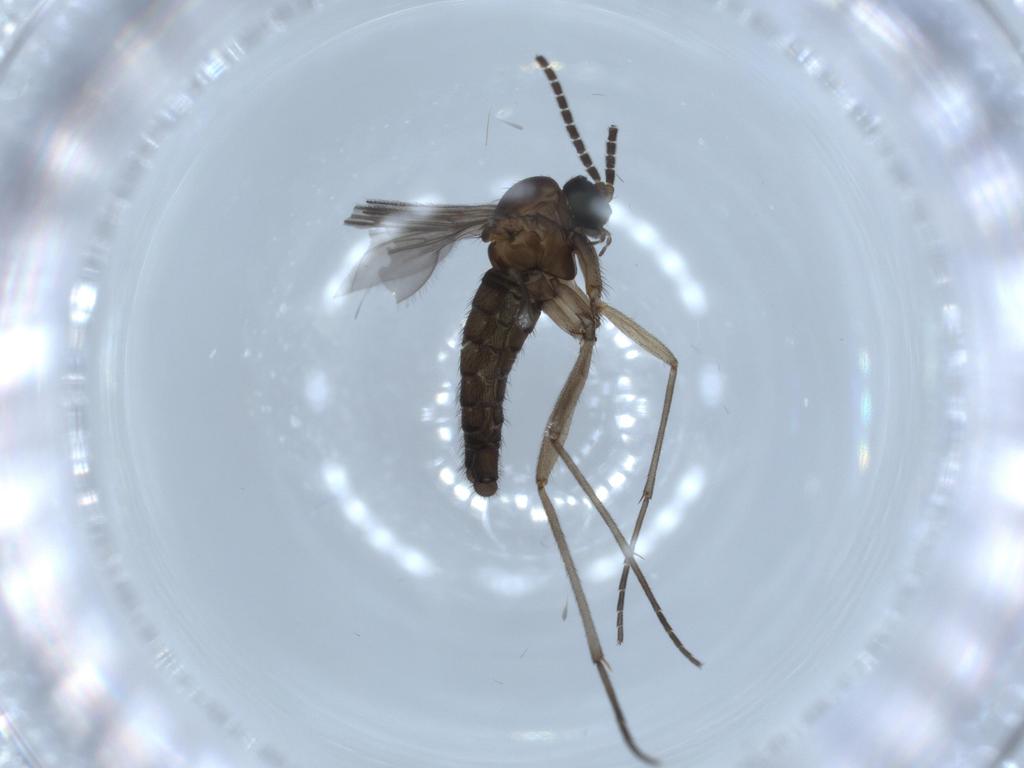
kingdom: Animalia
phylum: Arthropoda
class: Insecta
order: Diptera
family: Sciaridae
